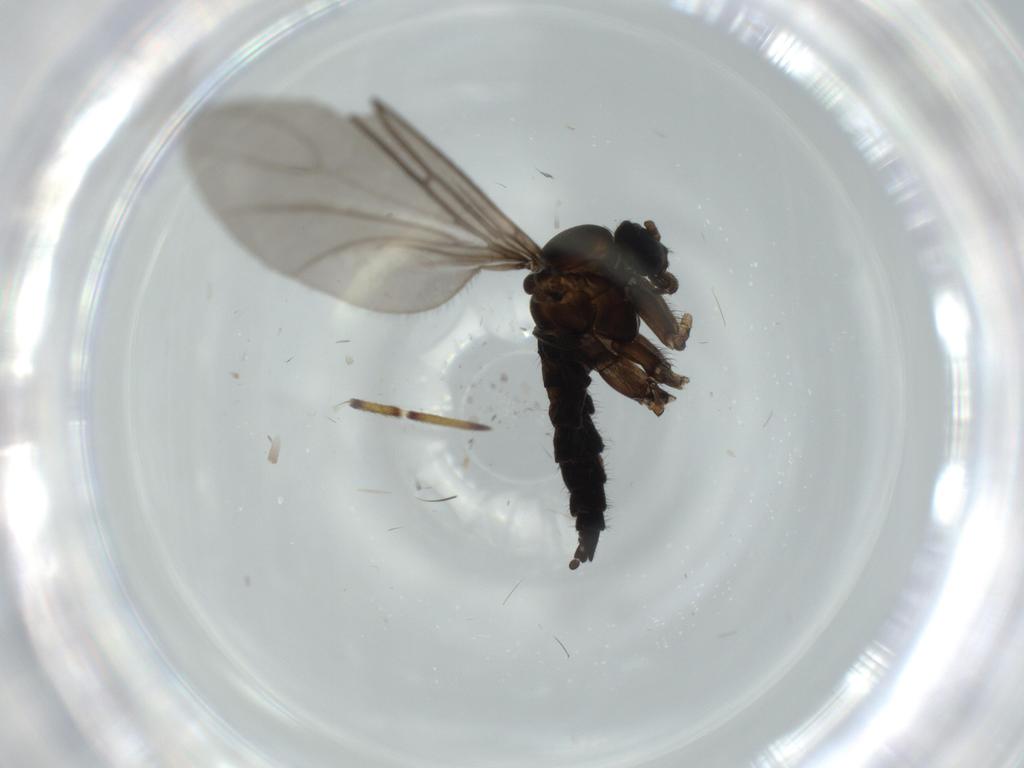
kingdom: Animalia
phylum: Arthropoda
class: Insecta
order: Diptera
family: Sciaridae
